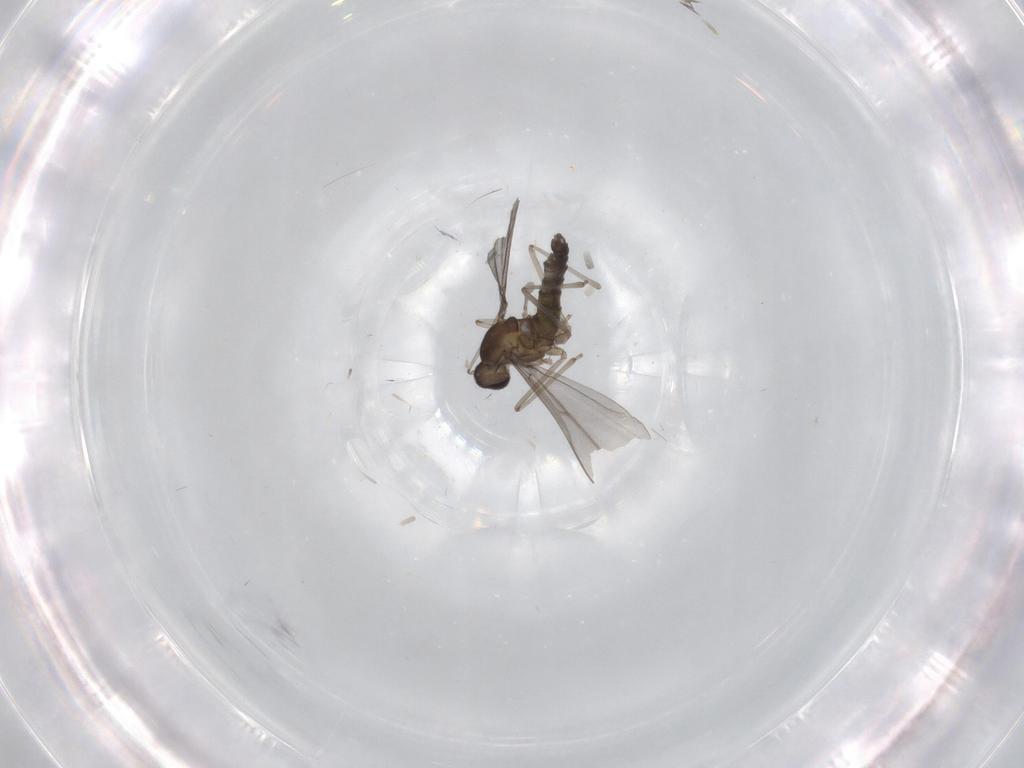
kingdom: Animalia
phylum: Arthropoda
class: Insecta
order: Diptera
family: Cecidomyiidae
